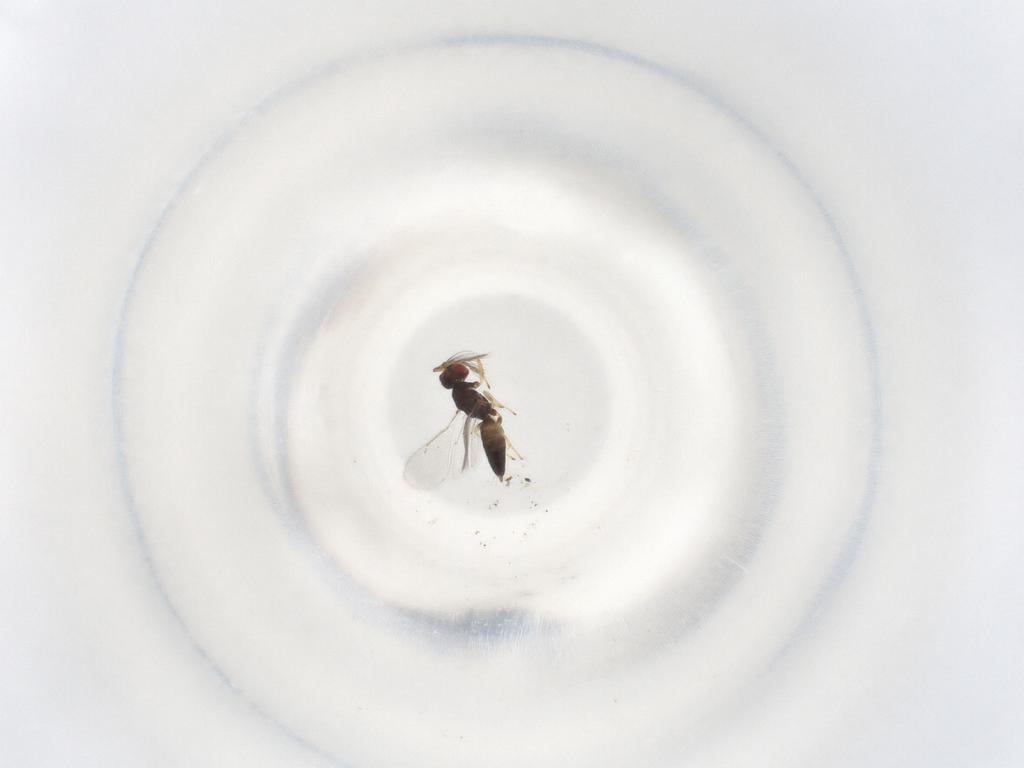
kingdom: Animalia
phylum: Arthropoda
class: Insecta
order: Hymenoptera
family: Eulophidae
